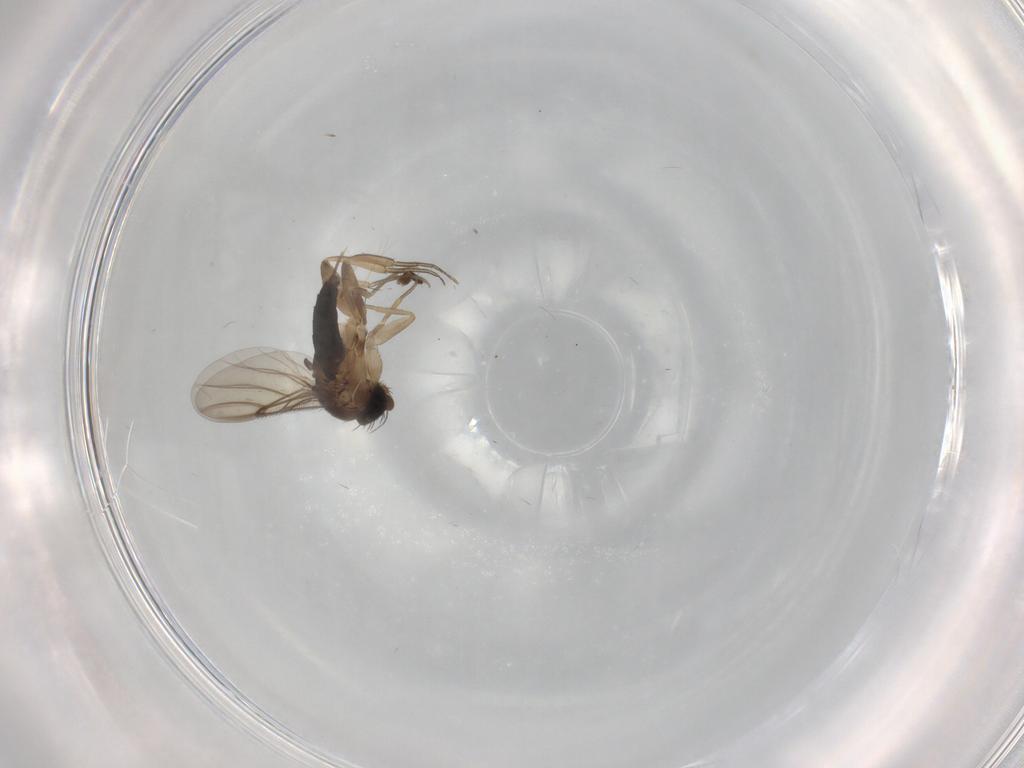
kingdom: Animalia
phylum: Arthropoda
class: Insecta
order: Diptera
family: Limoniidae
